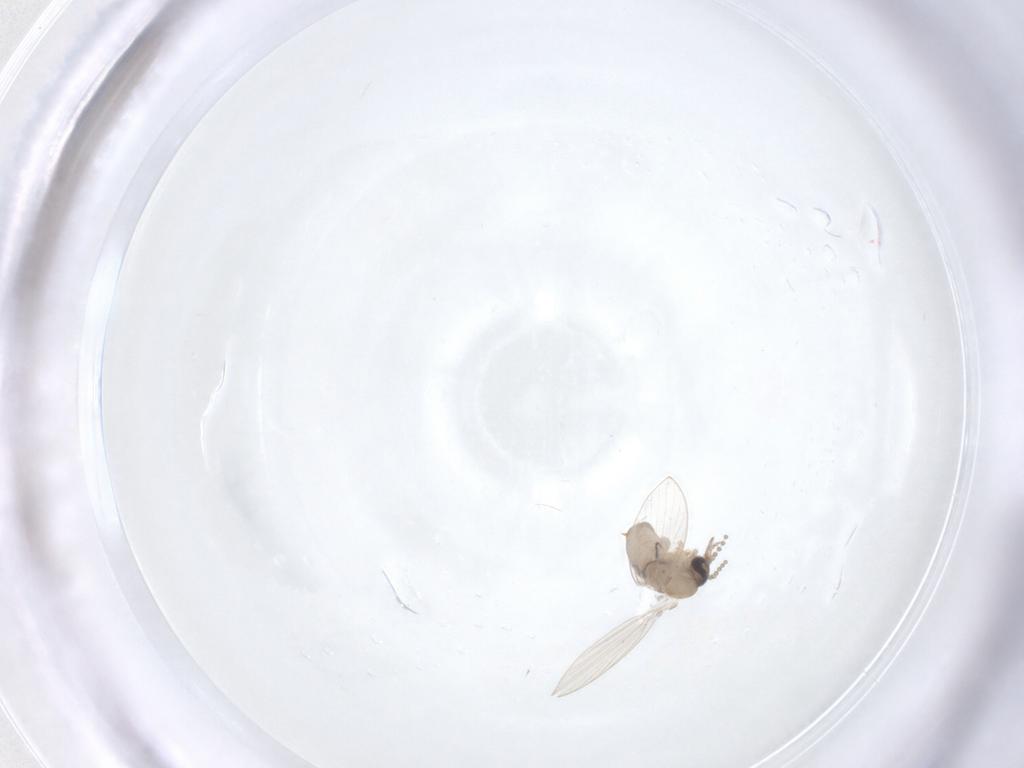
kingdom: Animalia
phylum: Arthropoda
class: Insecta
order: Diptera
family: Psychodidae
